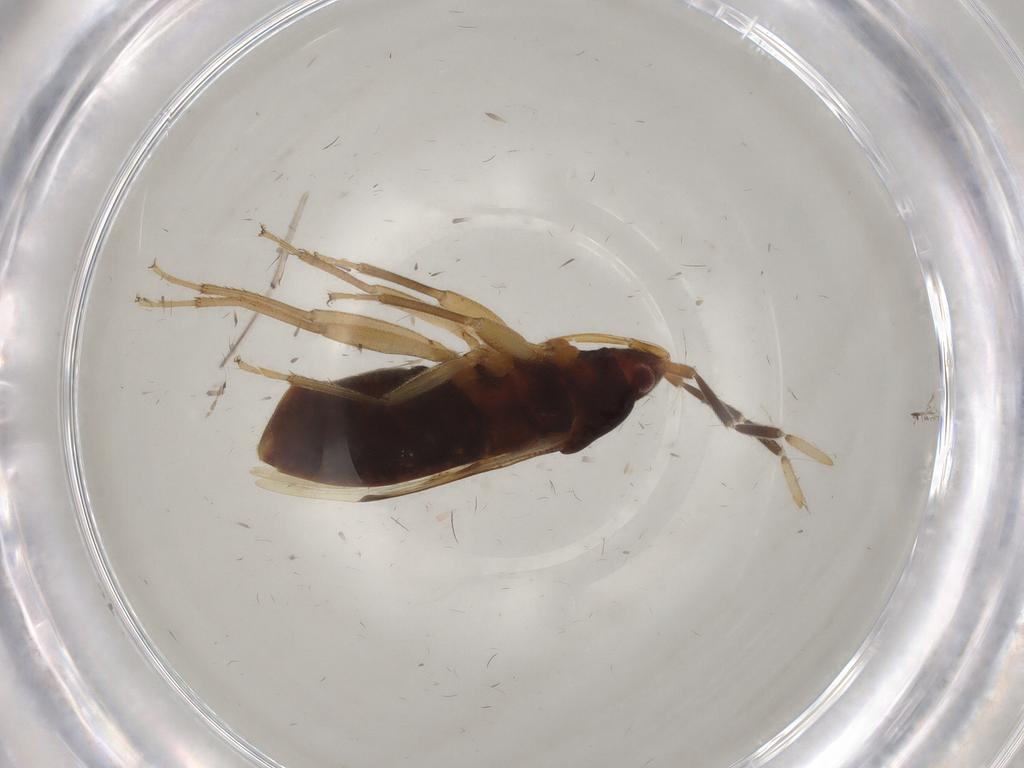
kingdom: Animalia
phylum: Arthropoda
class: Insecta
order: Hemiptera
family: Rhyparochromidae
